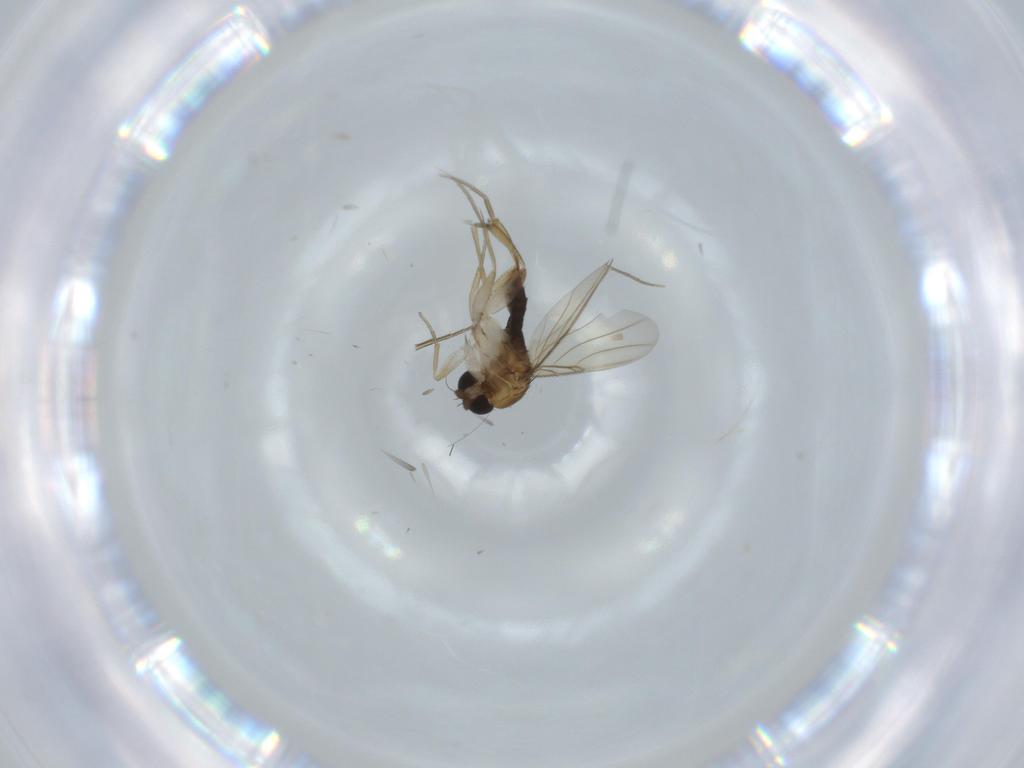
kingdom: Animalia
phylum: Arthropoda
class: Insecta
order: Diptera
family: Phoridae
